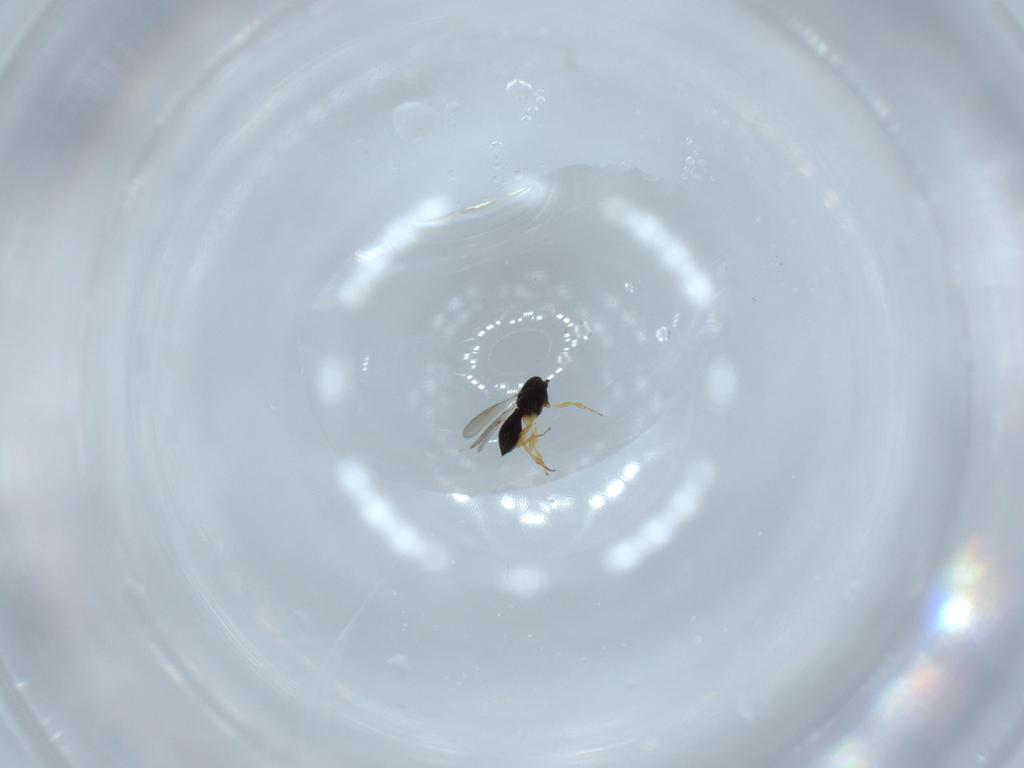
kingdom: Animalia
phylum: Arthropoda
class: Insecta
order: Hymenoptera
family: Scelionidae
